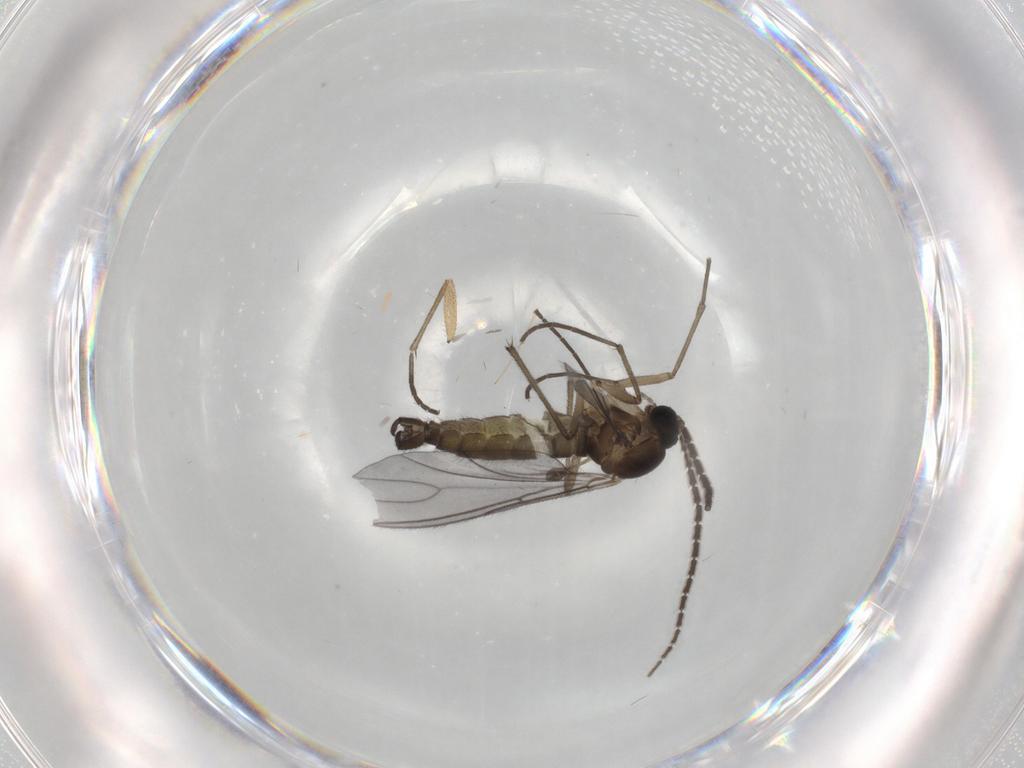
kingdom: Animalia
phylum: Arthropoda
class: Insecta
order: Diptera
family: Sciaridae
